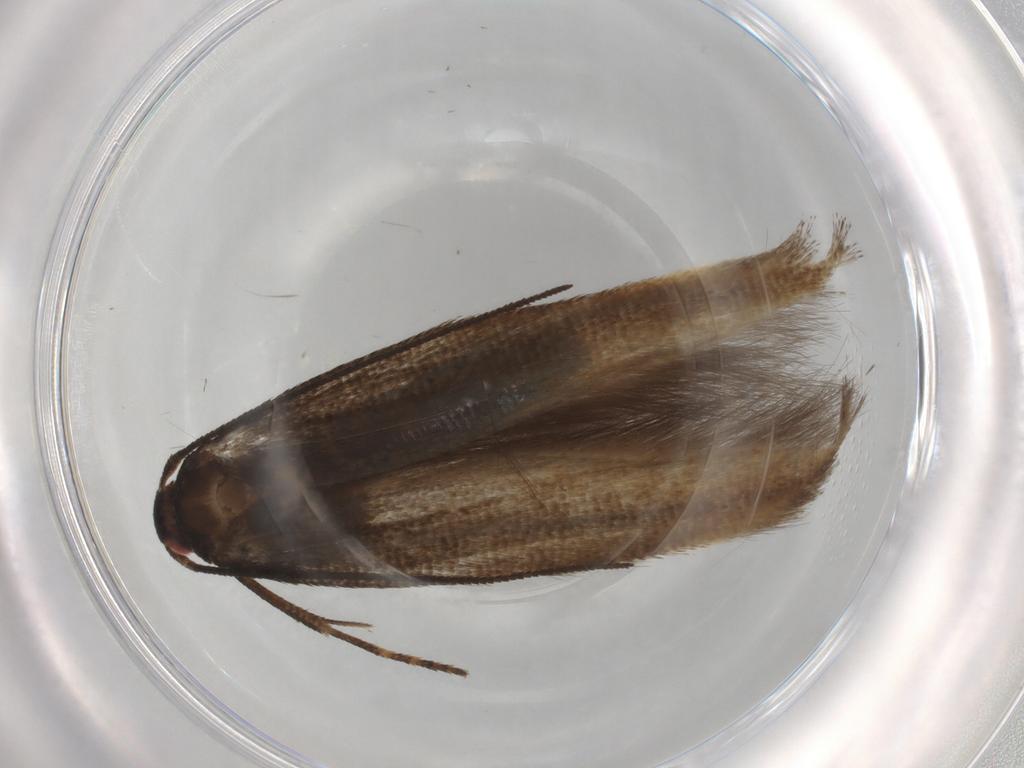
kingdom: Animalia
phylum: Arthropoda
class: Insecta
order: Lepidoptera
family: Momphidae
